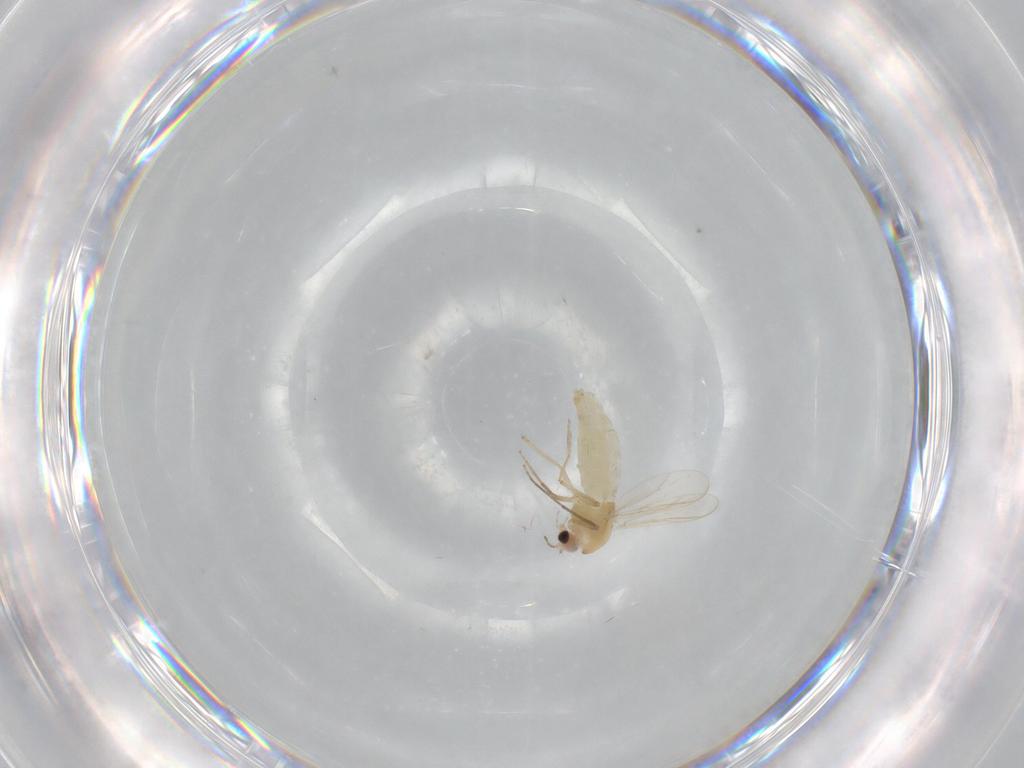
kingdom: Animalia
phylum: Arthropoda
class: Insecta
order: Diptera
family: Chironomidae
